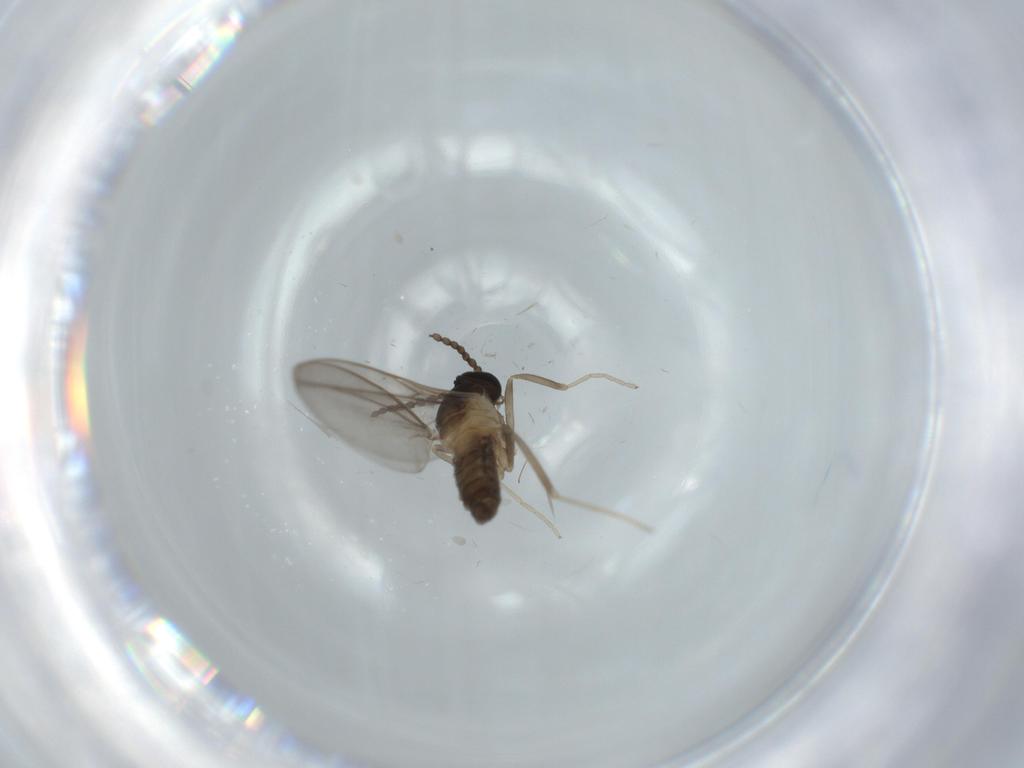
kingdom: Animalia
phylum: Arthropoda
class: Insecta
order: Diptera
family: Cecidomyiidae
